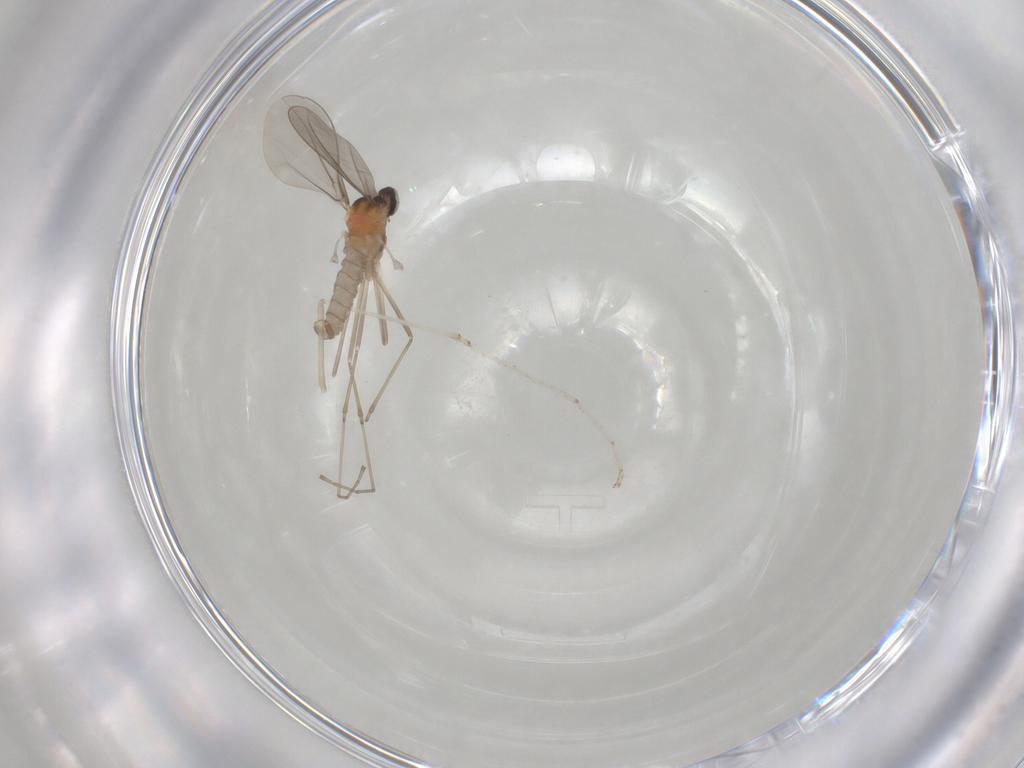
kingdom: Animalia
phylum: Arthropoda
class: Insecta
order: Diptera
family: Cecidomyiidae
